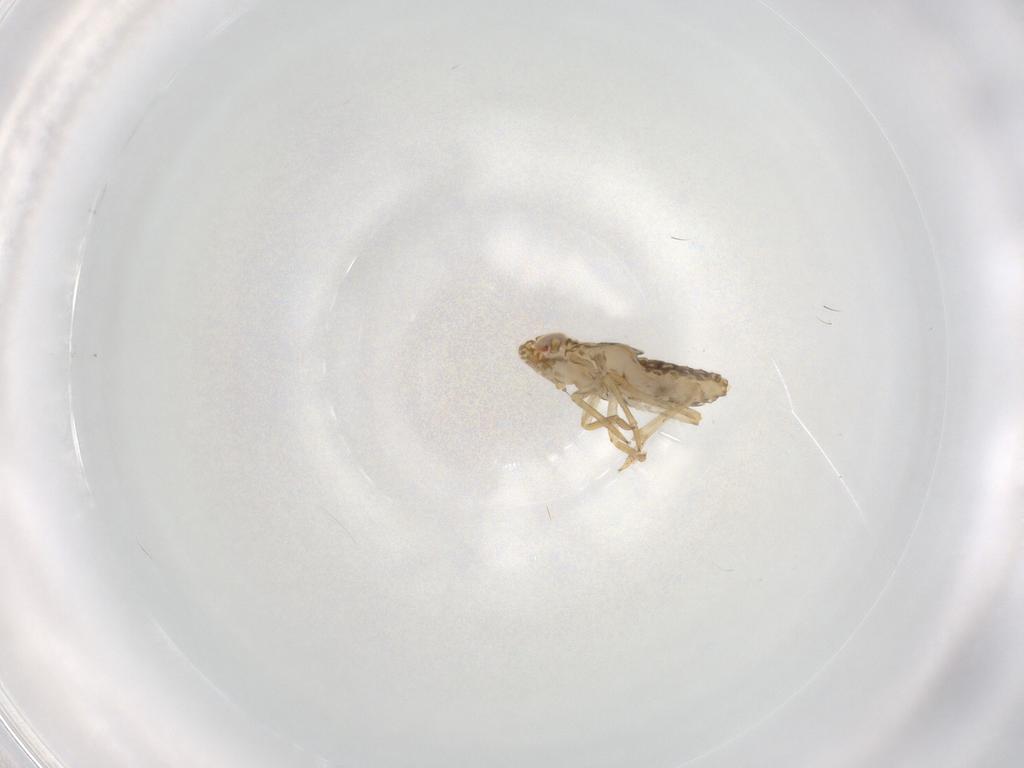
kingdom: Animalia
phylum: Arthropoda
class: Insecta
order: Hemiptera
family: Delphacidae
